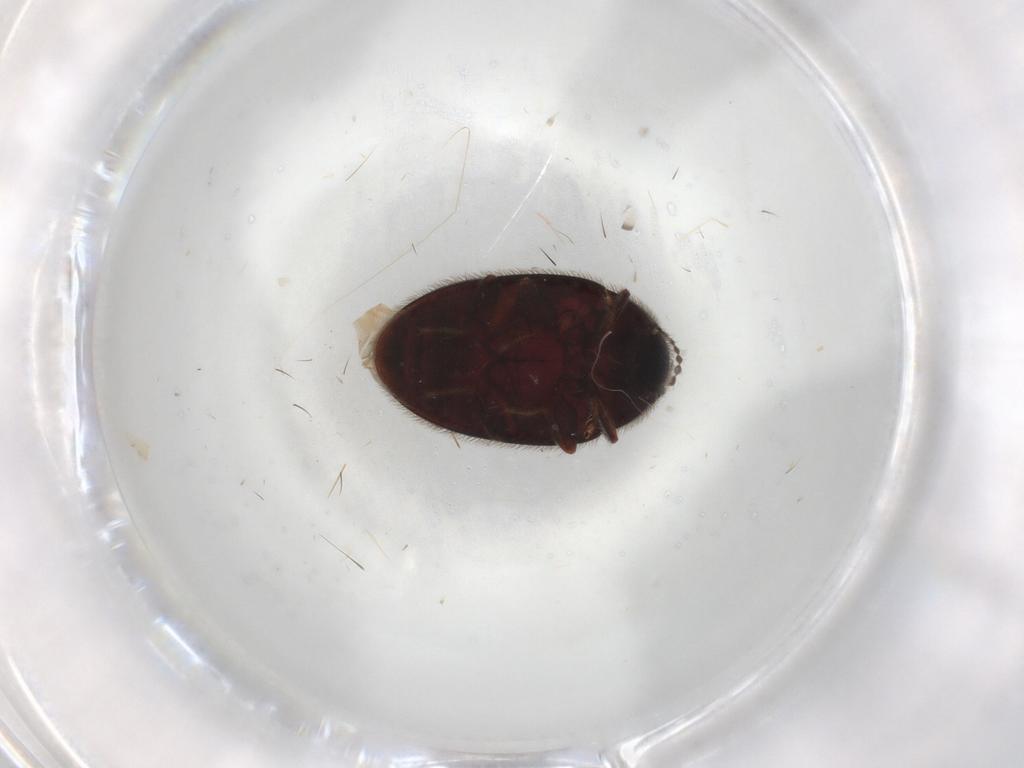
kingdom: Animalia
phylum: Arthropoda
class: Insecta
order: Coleoptera
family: Limnichidae
